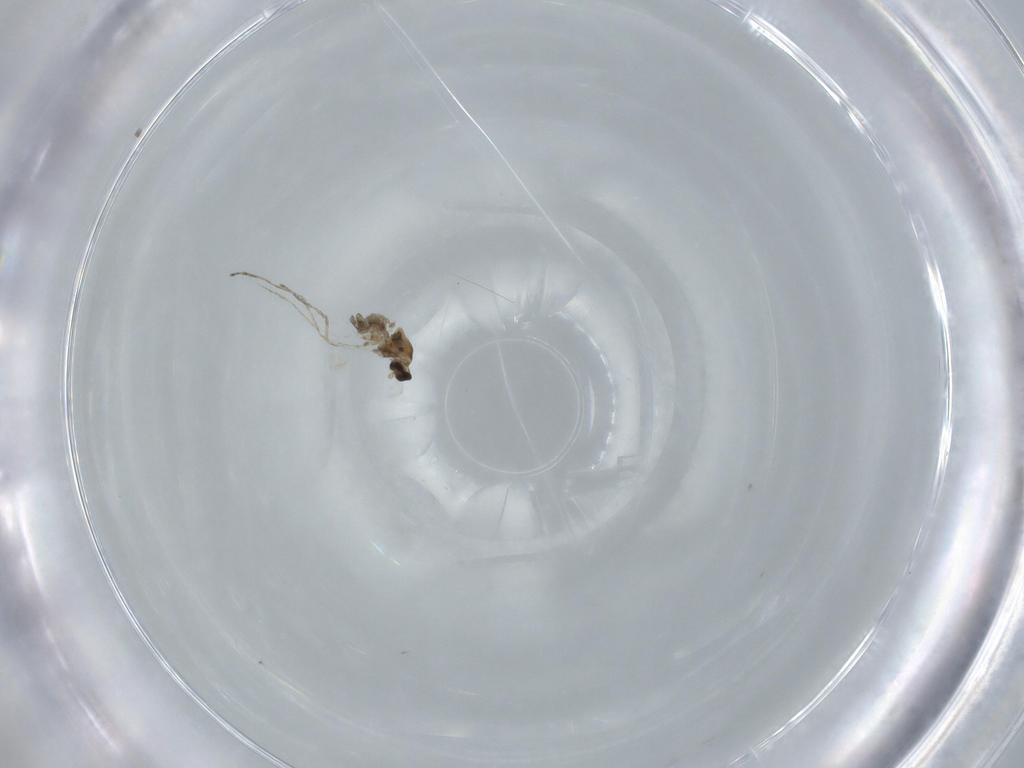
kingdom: Animalia
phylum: Arthropoda
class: Insecta
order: Diptera
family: Cecidomyiidae
